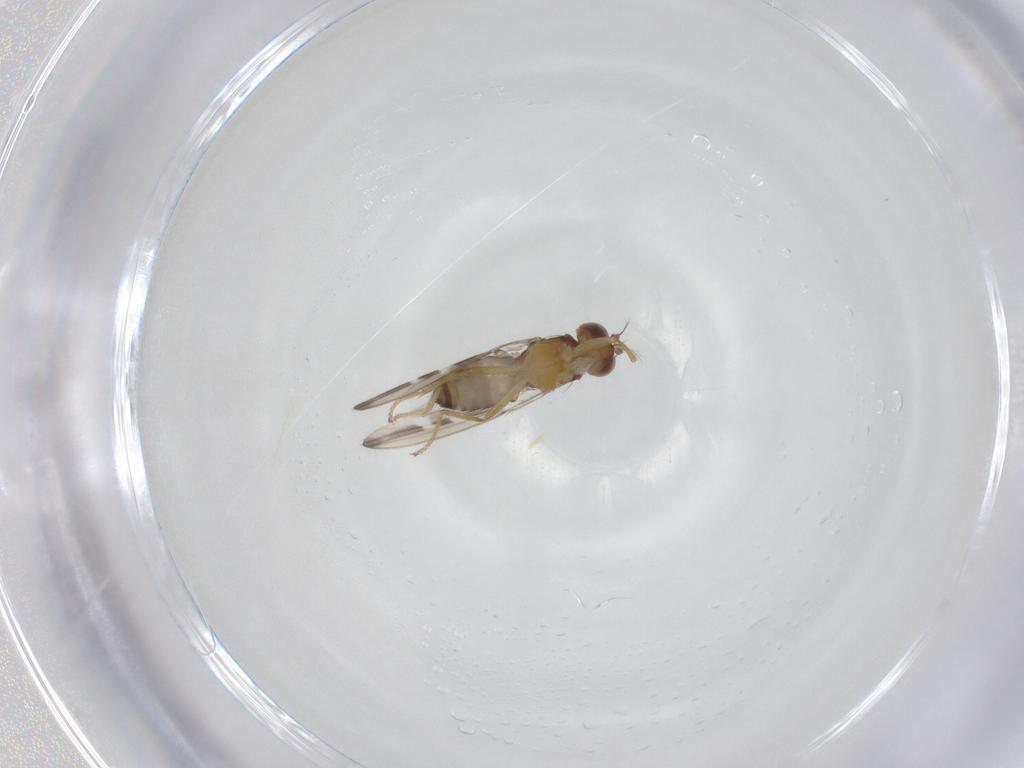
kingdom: Animalia
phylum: Arthropoda
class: Insecta
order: Diptera
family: Periscelididae
